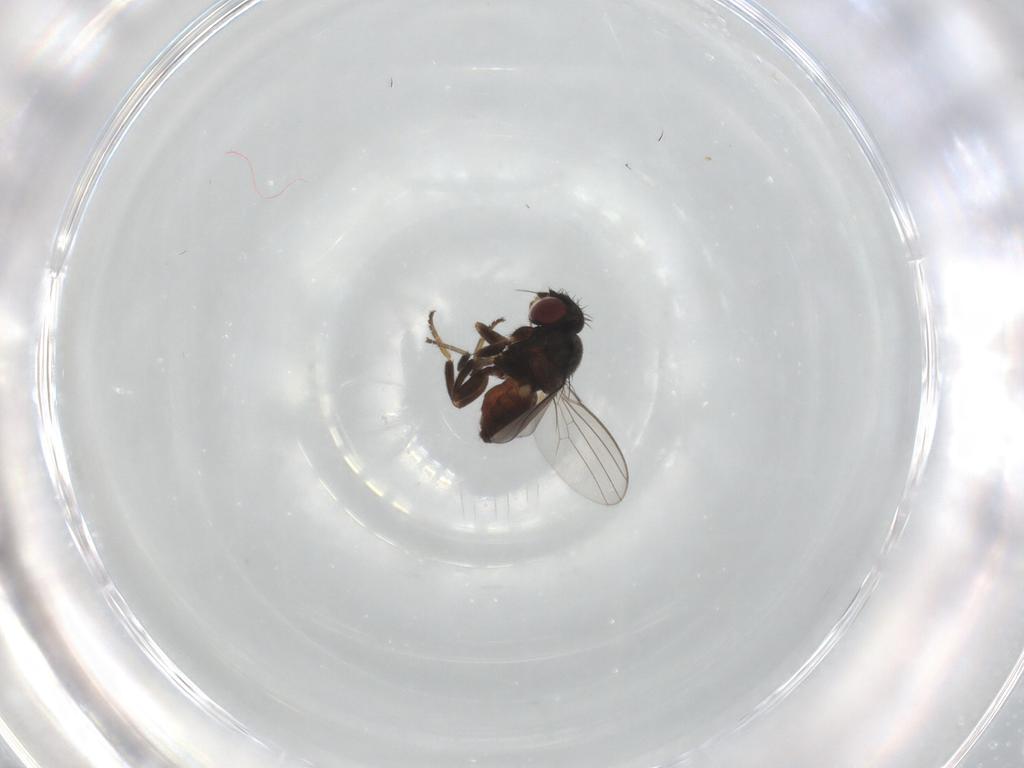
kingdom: Animalia
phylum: Arthropoda
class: Insecta
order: Diptera
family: Milichiidae
